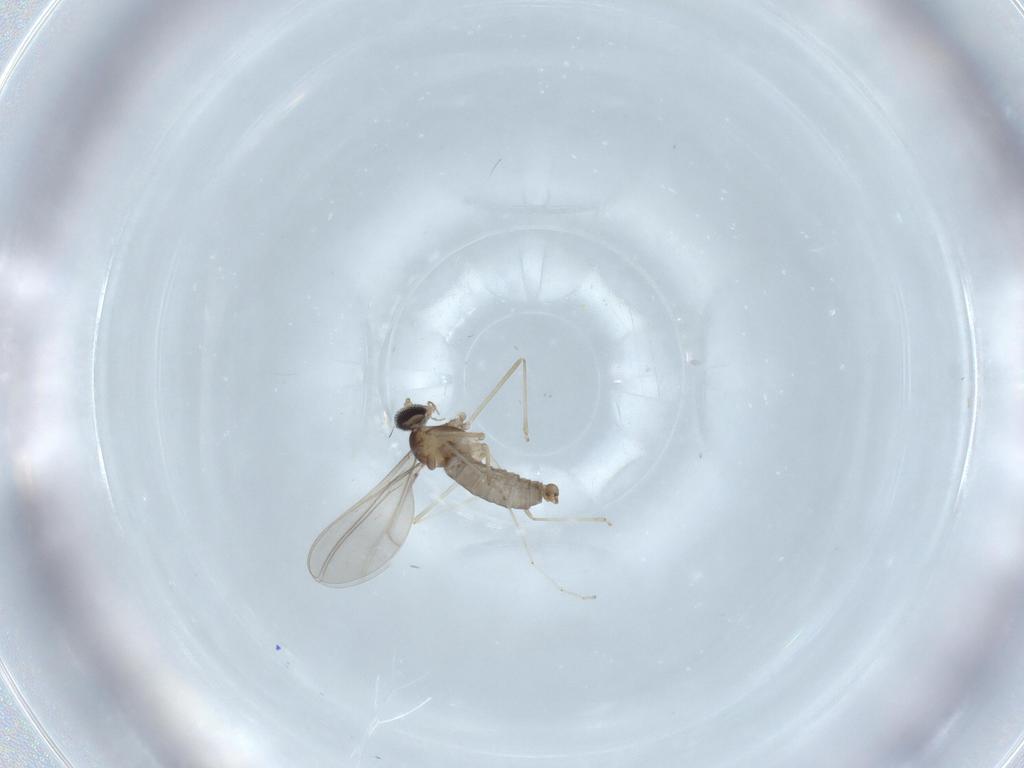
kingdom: Animalia
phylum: Arthropoda
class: Insecta
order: Diptera
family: Chironomidae
